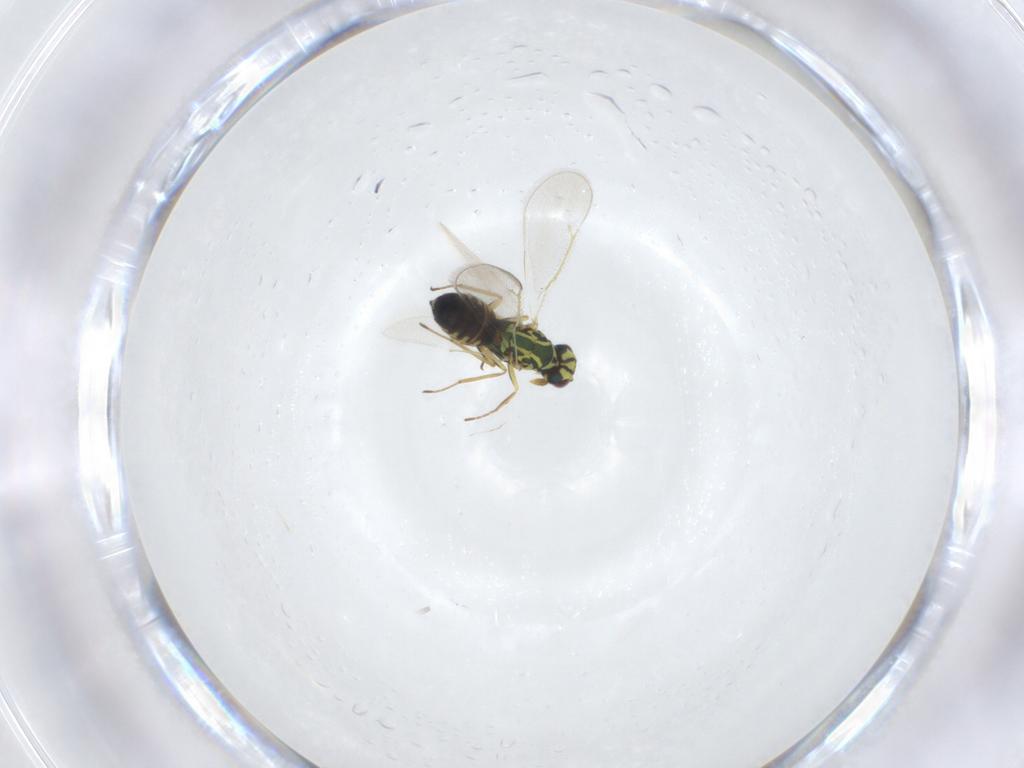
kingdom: Animalia
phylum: Arthropoda
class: Insecta
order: Hymenoptera
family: Eulophidae
